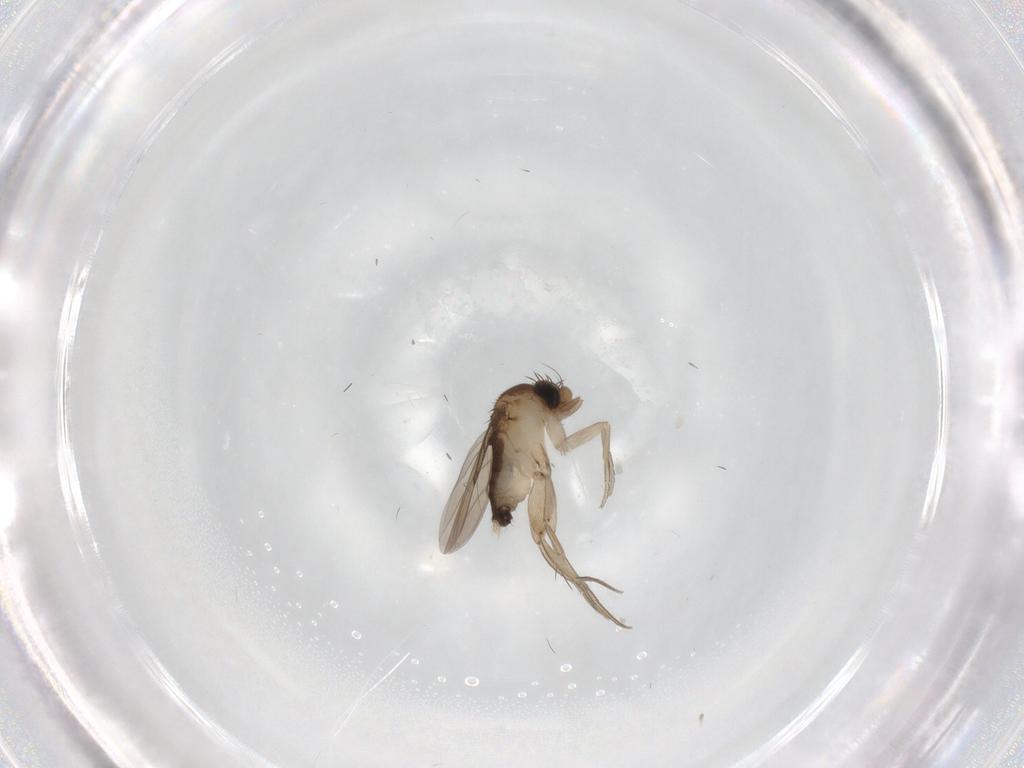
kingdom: Animalia
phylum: Arthropoda
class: Insecta
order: Diptera
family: Phoridae
